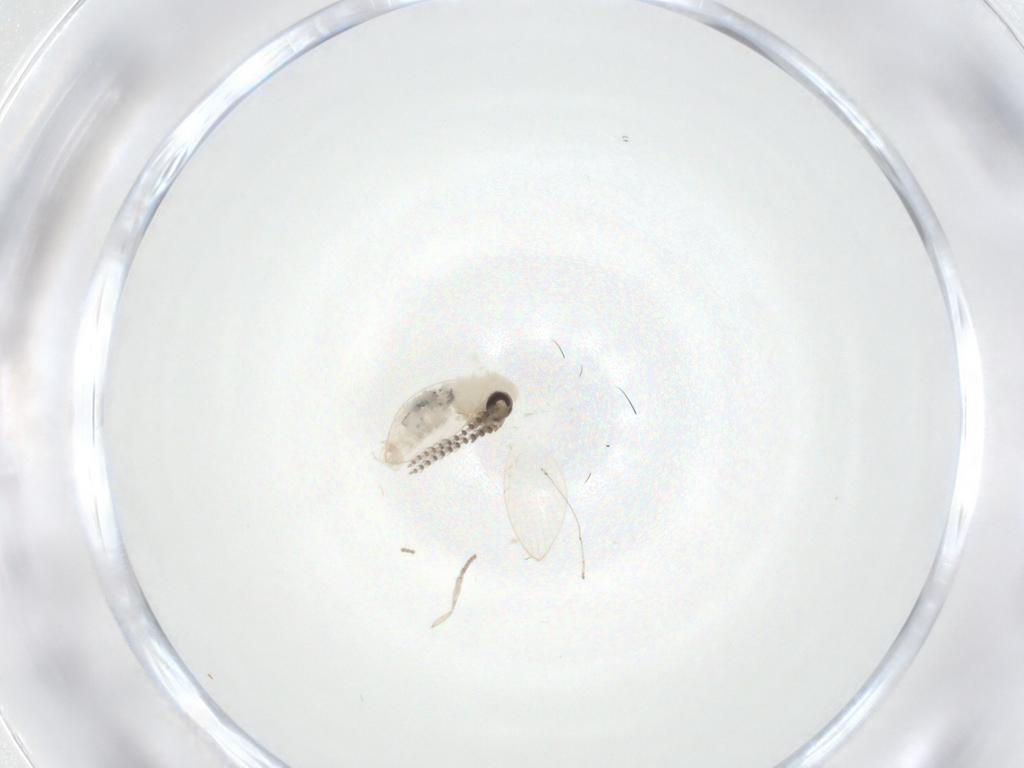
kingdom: Animalia
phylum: Arthropoda
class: Insecta
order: Diptera
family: Psychodidae
